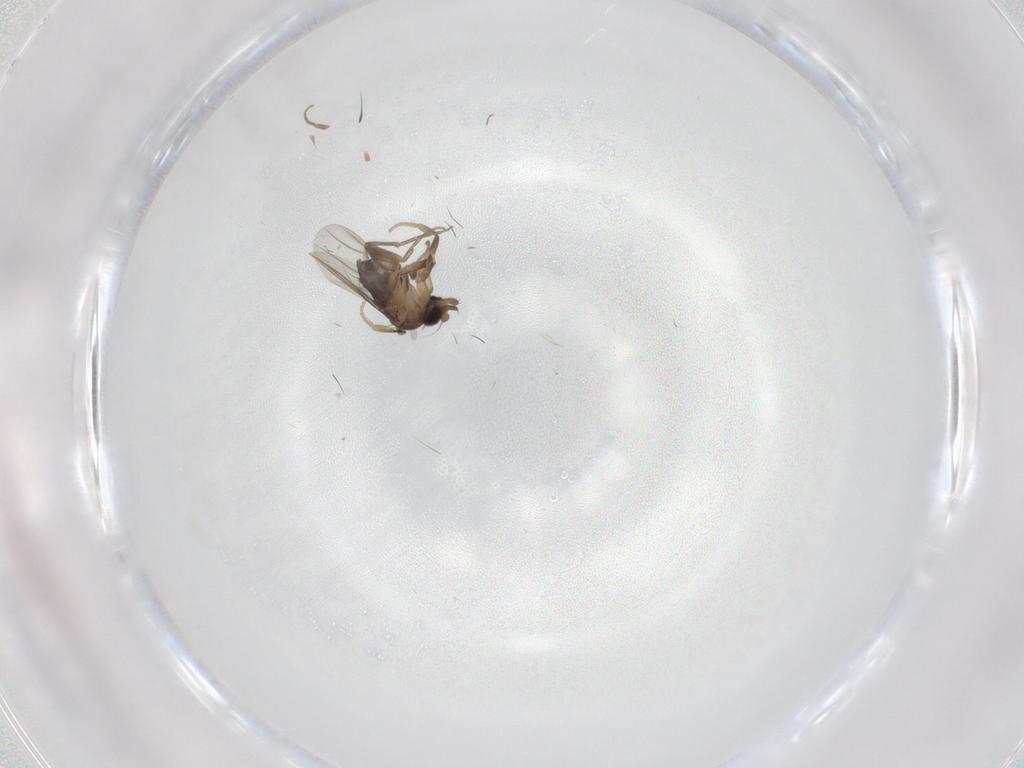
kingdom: Animalia
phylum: Arthropoda
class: Insecta
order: Diptera
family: Phoridae
